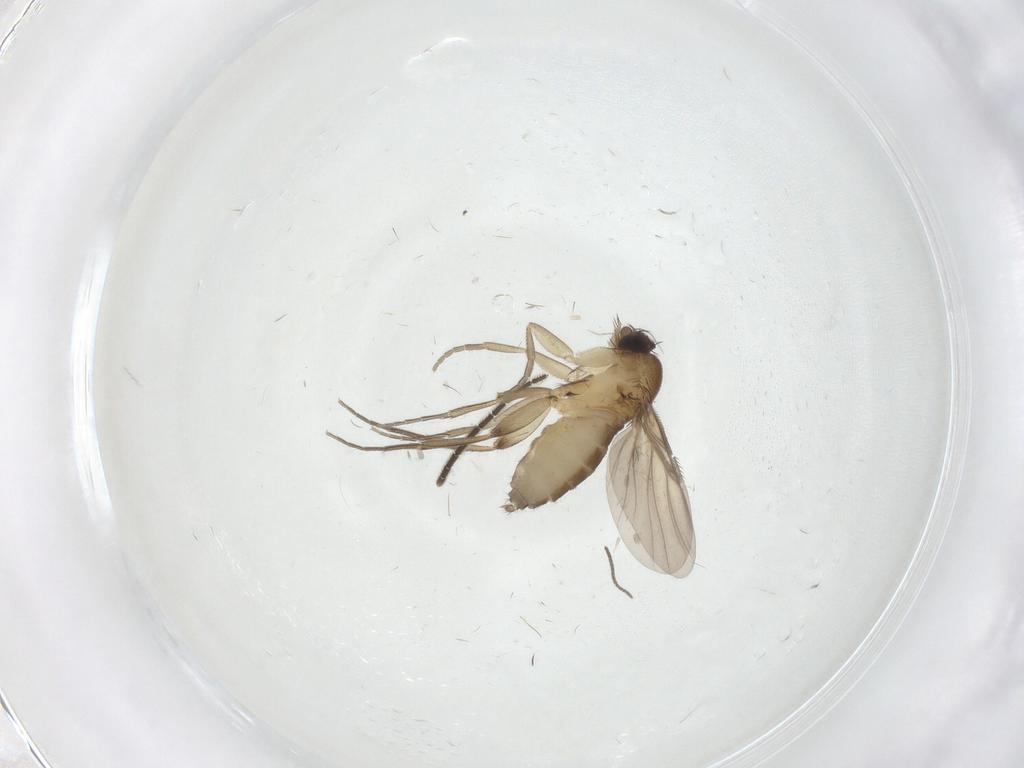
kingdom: Animalia
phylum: Arthropoda
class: Insecta
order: Diptera
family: Phoridae
